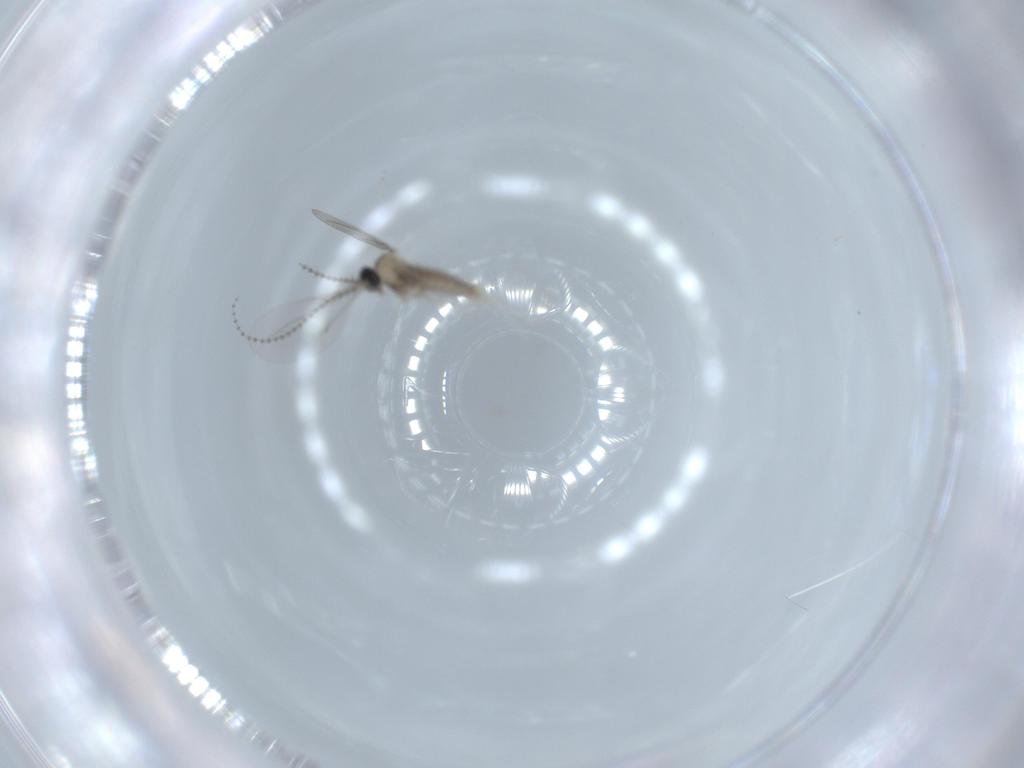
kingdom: Animalia
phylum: Arthropoda
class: Insecta
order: Diptera
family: Cecidomyiidae
